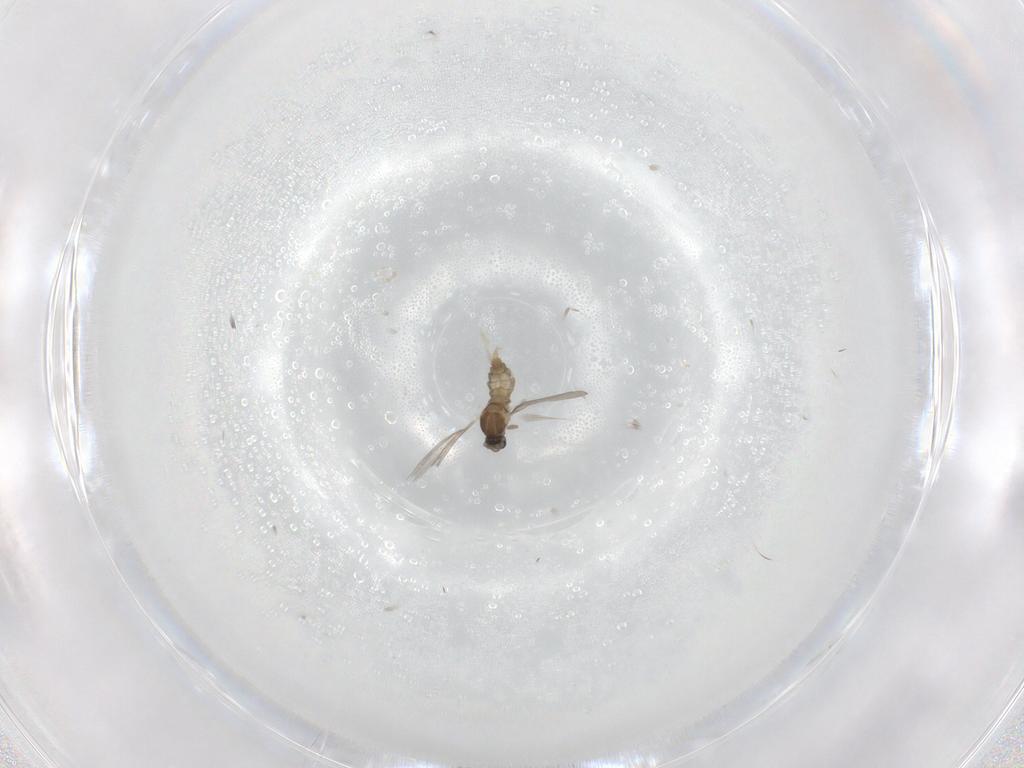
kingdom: Animalia
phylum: Arthropoda
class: Insecta
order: Diptera
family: Cecidomyiidae
